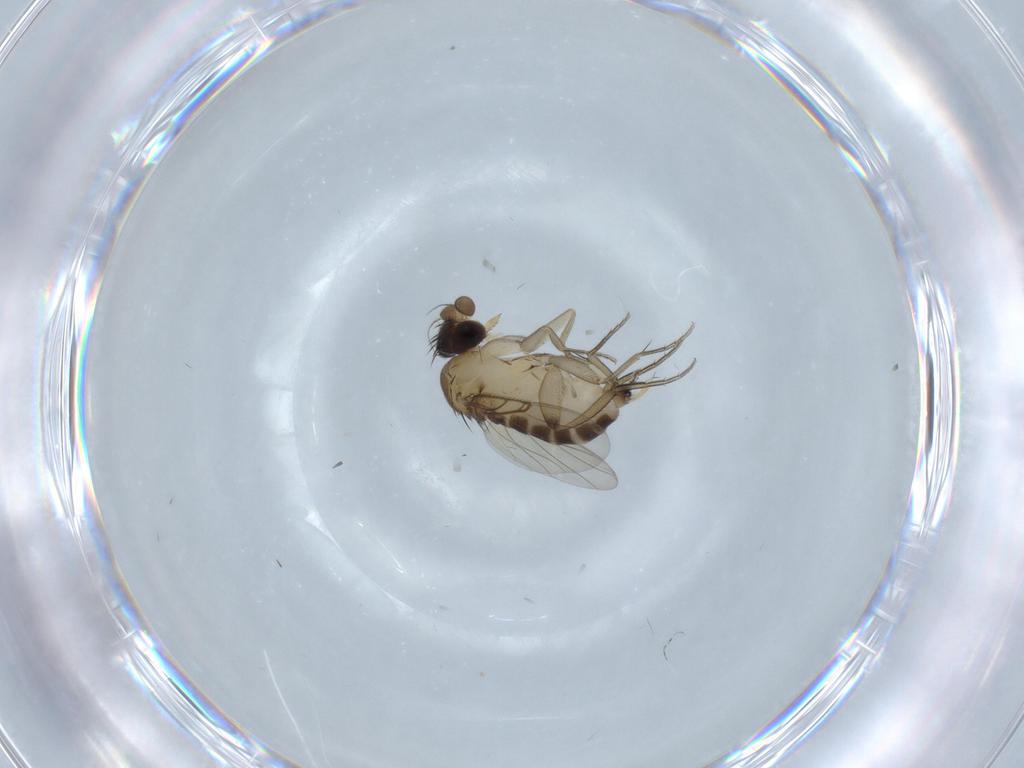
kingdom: Animalia
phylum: Arthropoda
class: Insecta
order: Diptera
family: Phoridae
